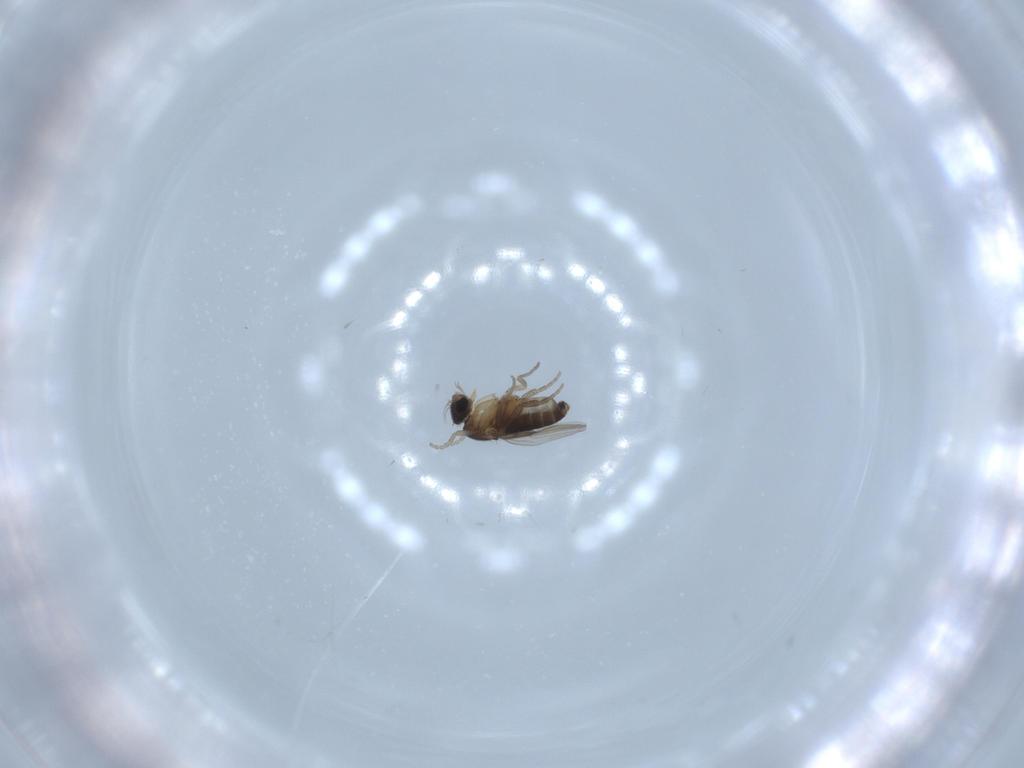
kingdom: Animalia
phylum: Arthropoda
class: Insecta
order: Diptera
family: Phoridae
